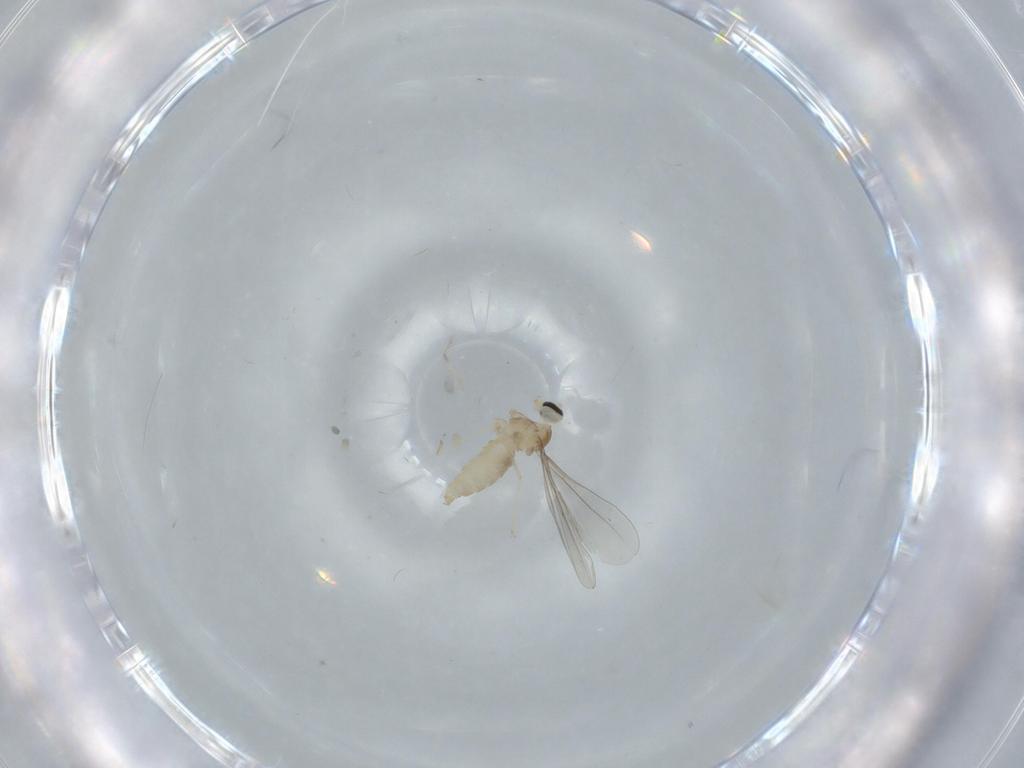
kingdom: Animalia
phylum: Arthropoda
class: Insecta
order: Diptera
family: Cecidomyiidae
